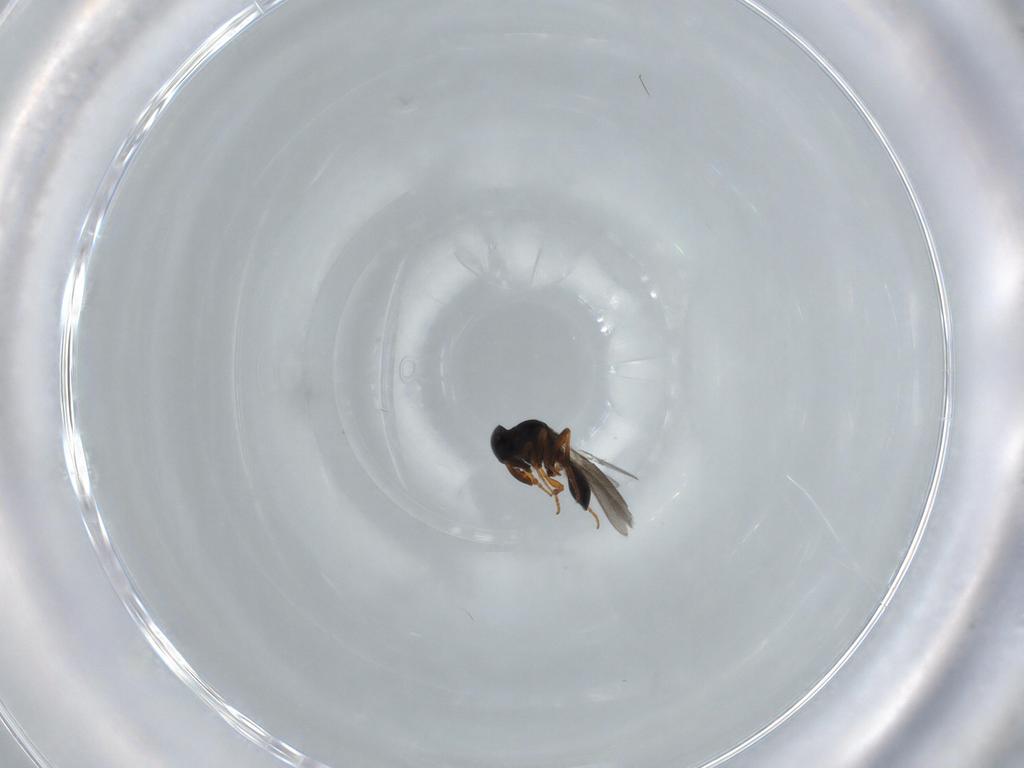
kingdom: Animalia
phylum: Arthropoda
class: Insecta
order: Hymenoptera
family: Platygastridae
